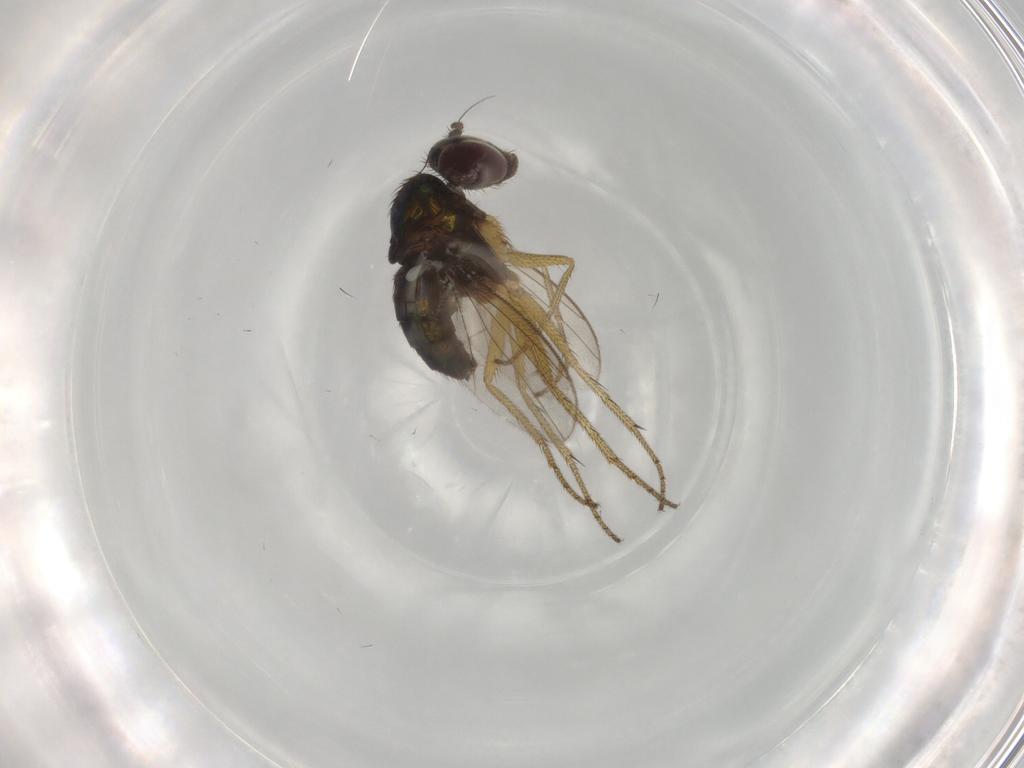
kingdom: Animalia
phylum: Arthropoda
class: Insecta
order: Diptera
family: Dolichopodidae
